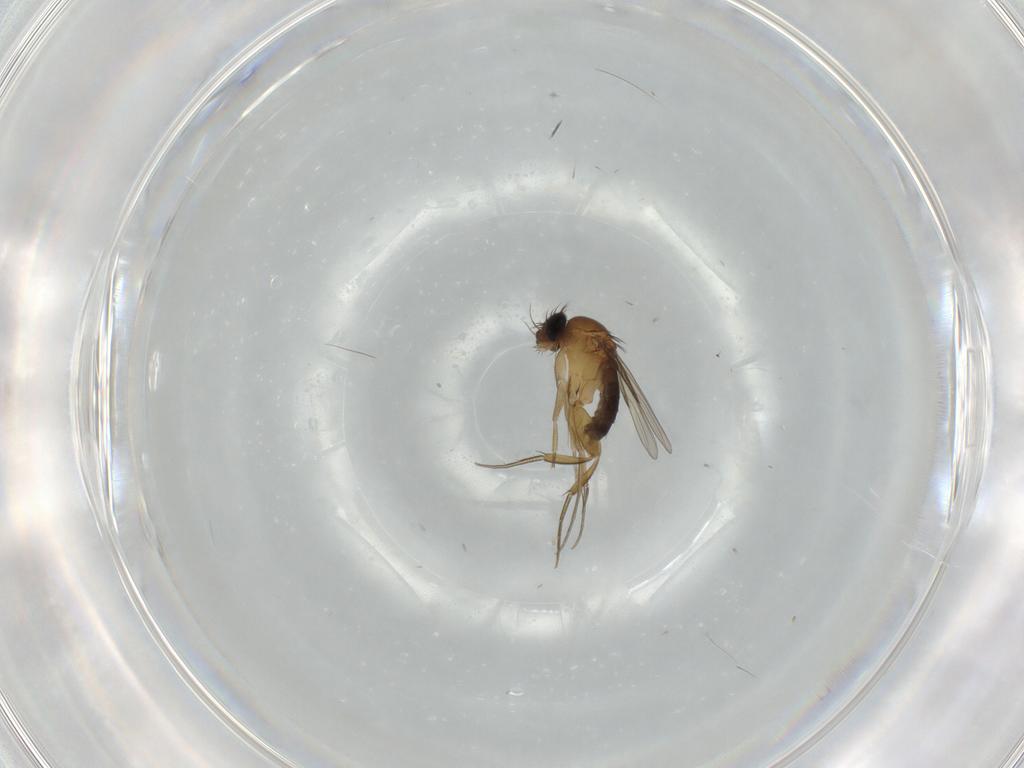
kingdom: Animalia
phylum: Arthropoda
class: Insecta
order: Diptera
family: Phoridae
